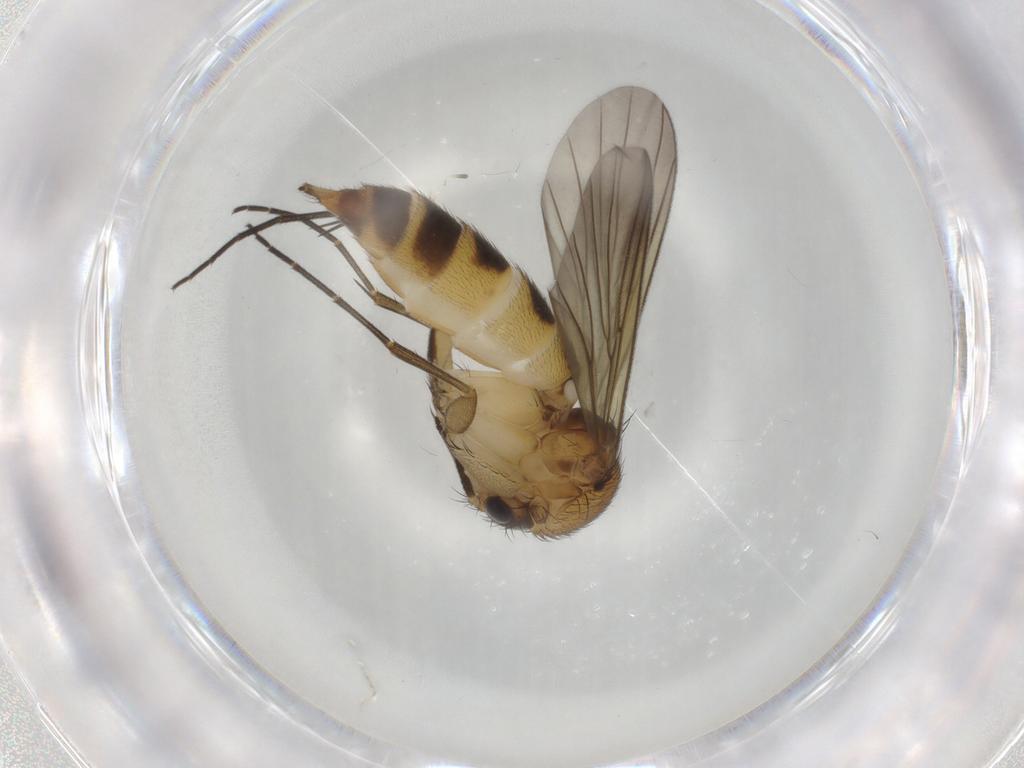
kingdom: Animalia
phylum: Arthropoda
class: Insecta
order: Diptera
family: Mycetophilidae
